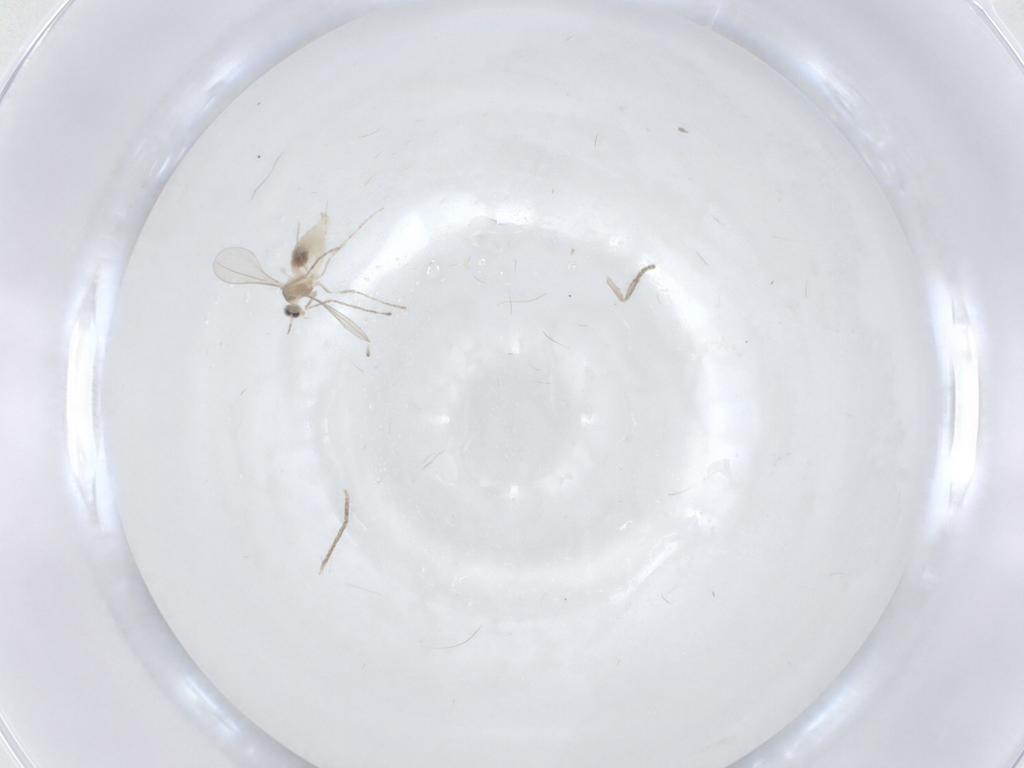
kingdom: Animalia
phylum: Arthropoda
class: Insecta
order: Diptera
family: Cecidomyiidae
